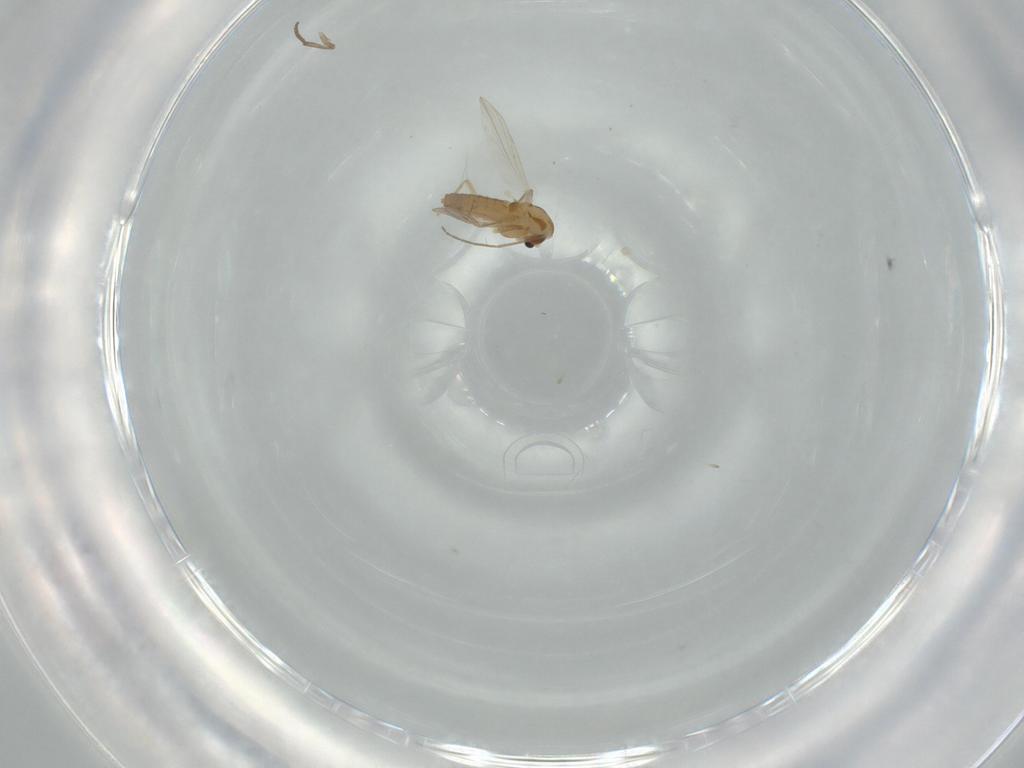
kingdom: Animalia
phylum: Arthropoda
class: Insecta
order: Diptera
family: Chironomidae
